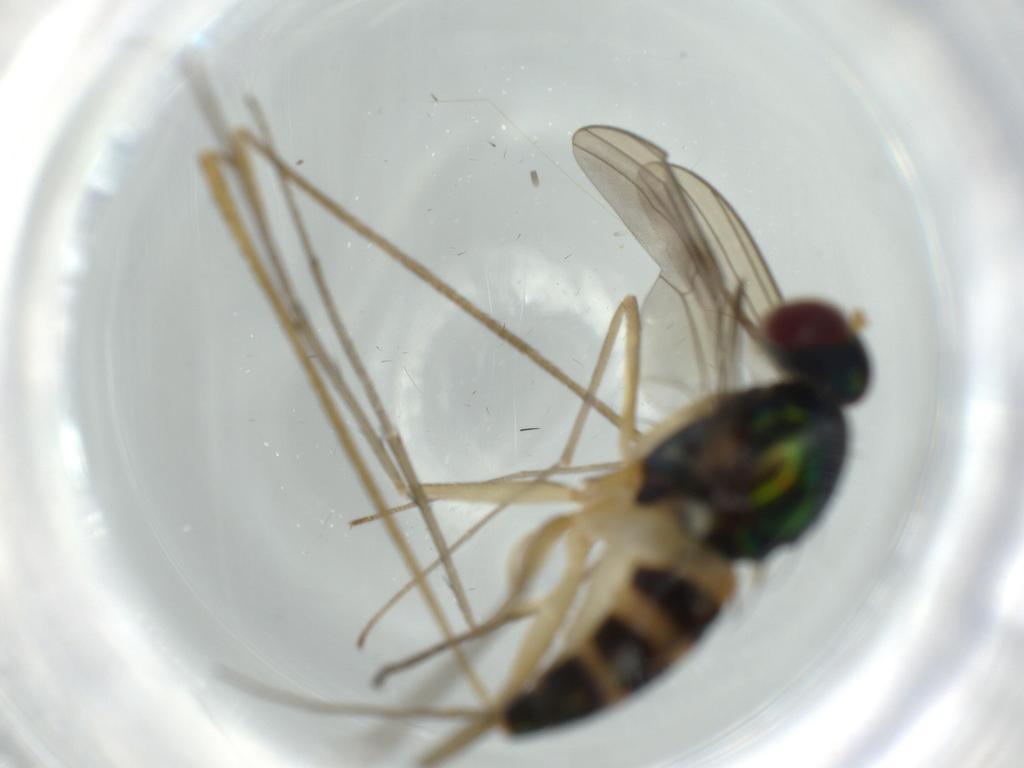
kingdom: Animalia
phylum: Arthropoda
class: Insecta
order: Diptera
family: Dolichopodidae
